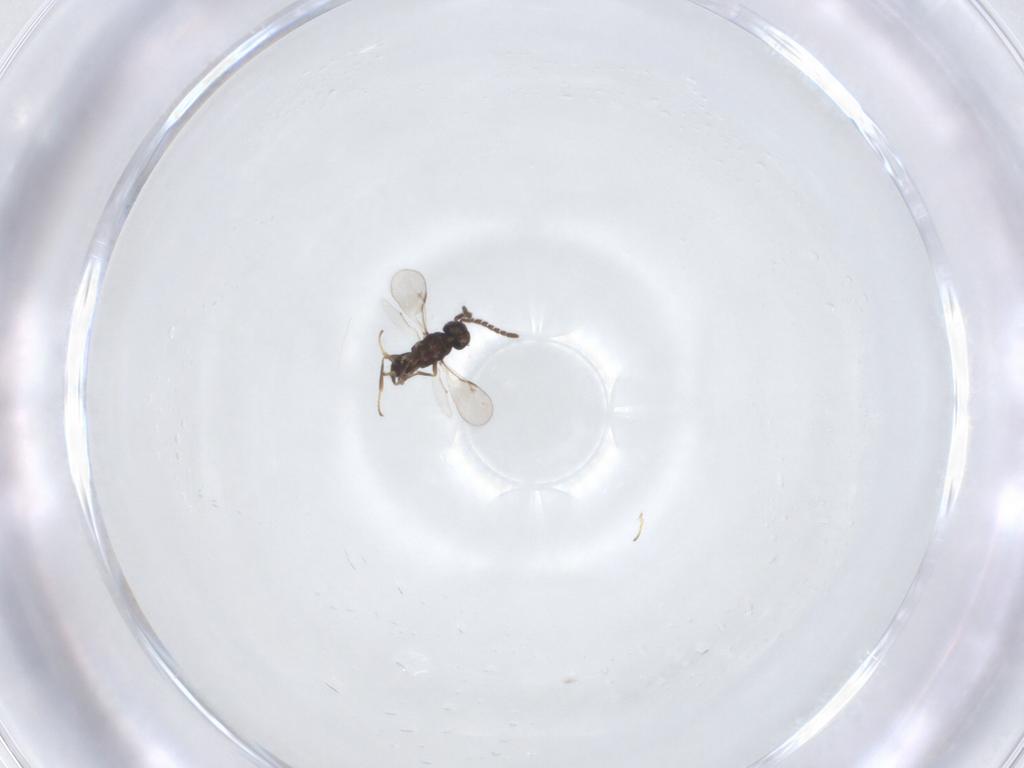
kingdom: Animalia
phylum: Arthropoda
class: Insecta
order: Hymenoptera
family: Encyrtidae
